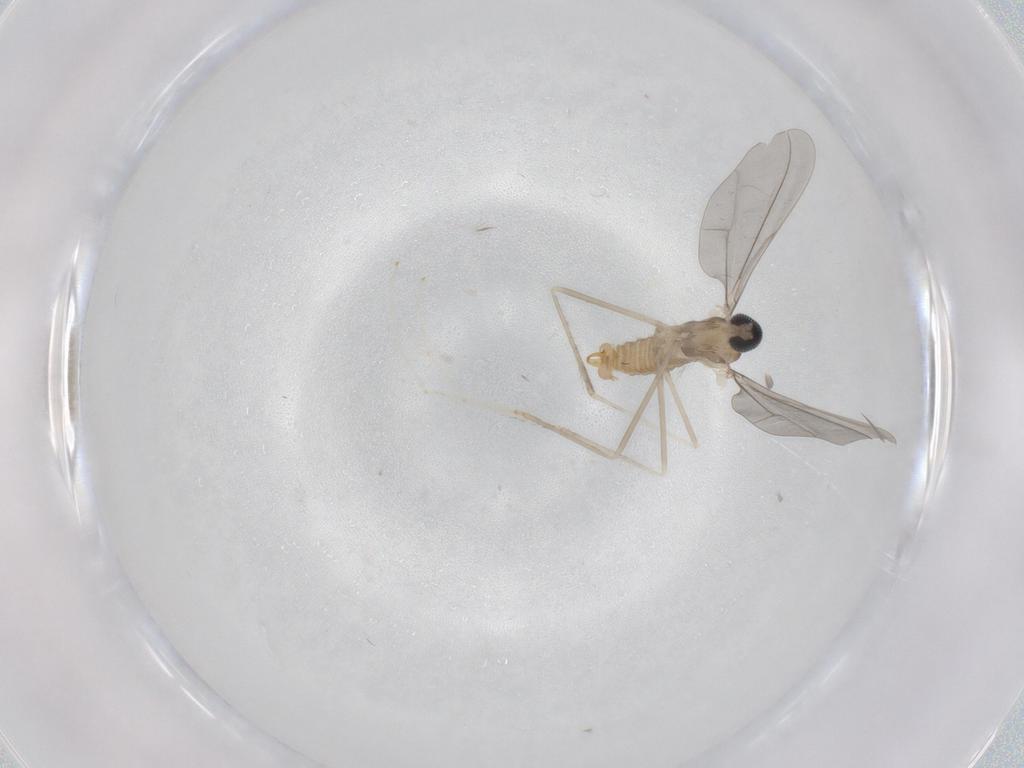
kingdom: Animalia
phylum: Arthropoda
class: Insecta
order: Diptera
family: Cecidomyiidae
